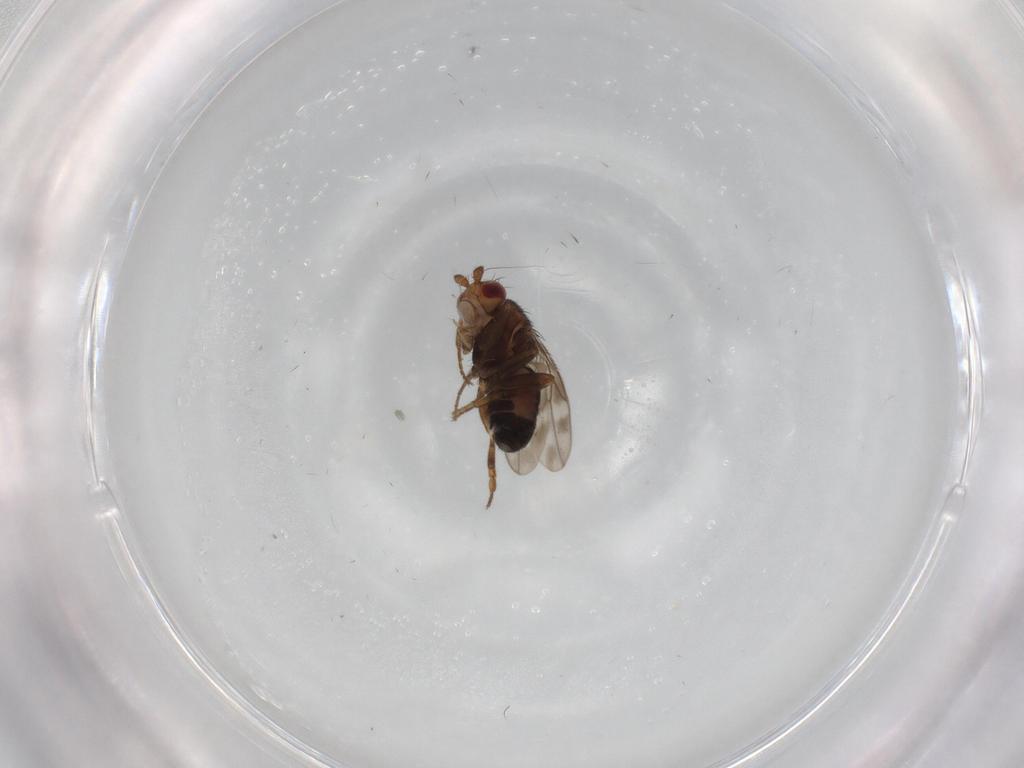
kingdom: Animalia
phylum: Arthropoda
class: Insecta
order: Diptera
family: Sphaeroceridae
